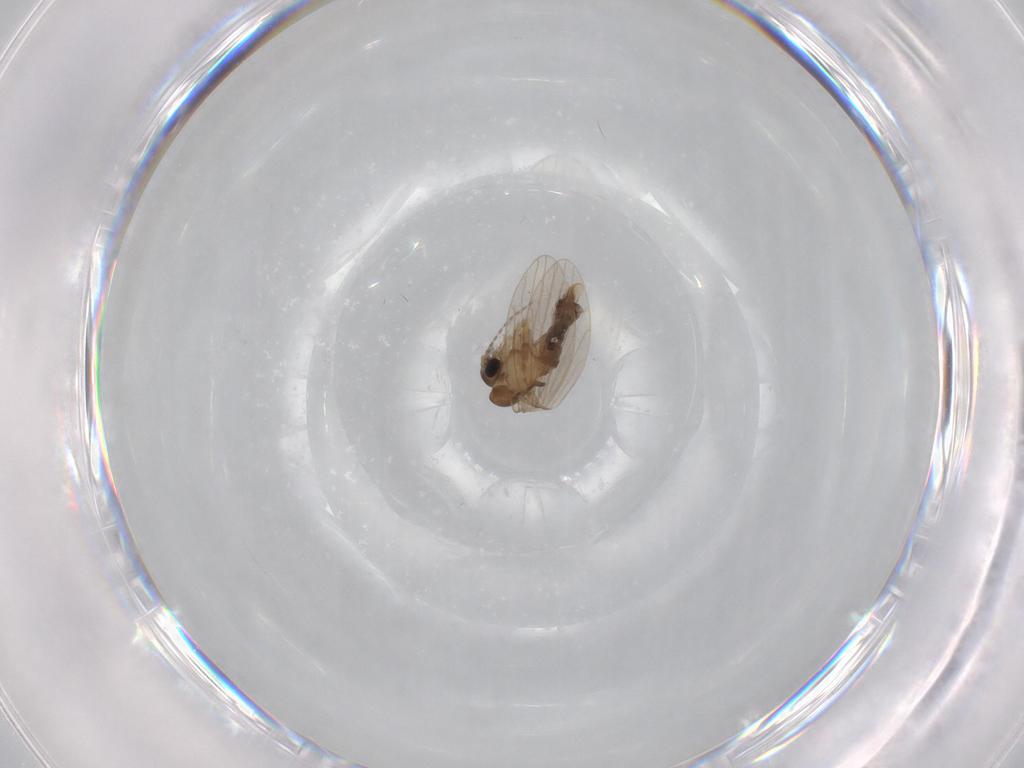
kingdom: Animalia
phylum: Arthropoda
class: Insecta
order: Diptera
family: Psychodidae
